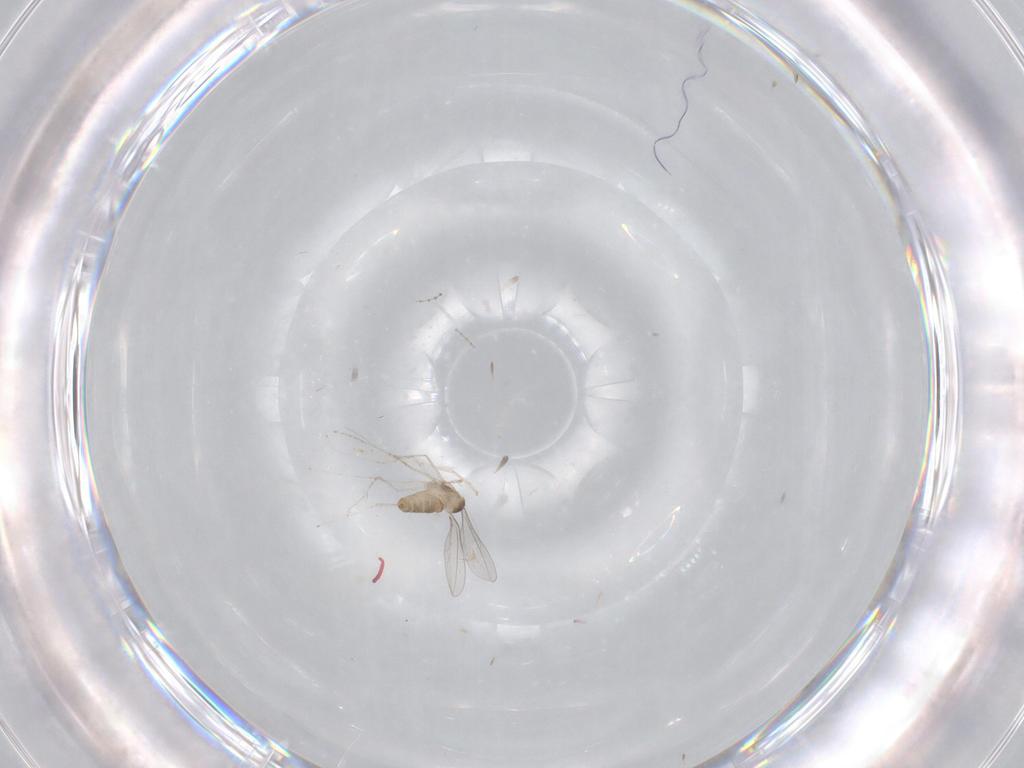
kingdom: Animalia
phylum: Arthropoda
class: Insecta
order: Diptera
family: Cecidomyiidae
